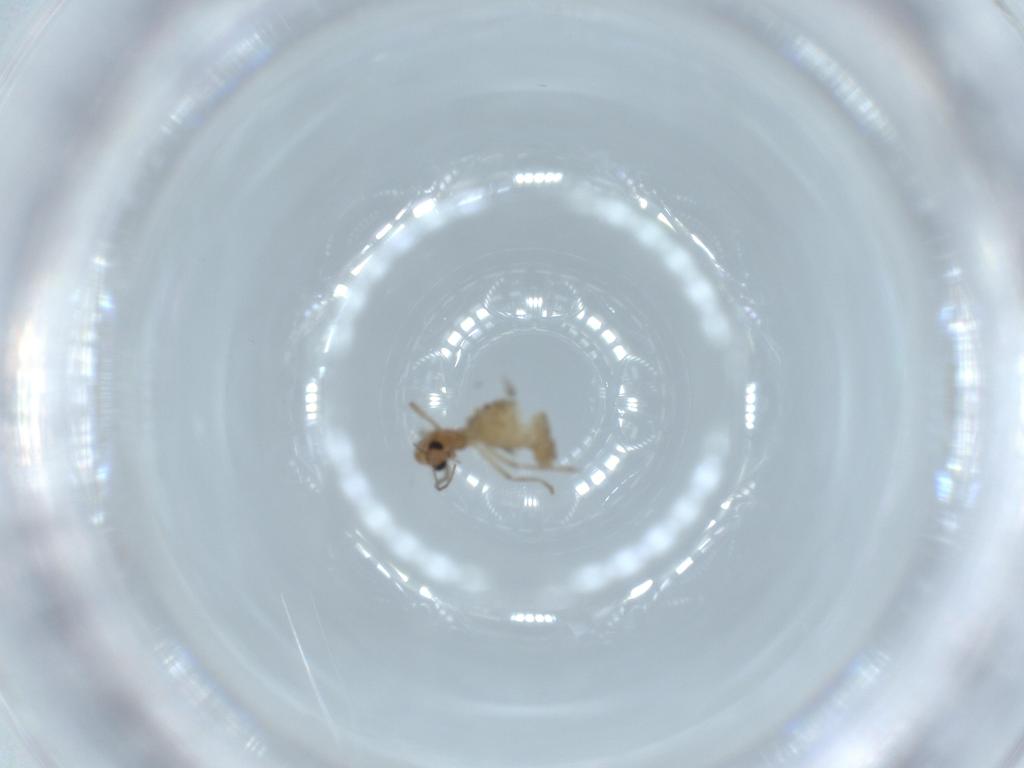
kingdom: Animalia
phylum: Arthropoda
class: Insecta
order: Diptera
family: Chironomidae
